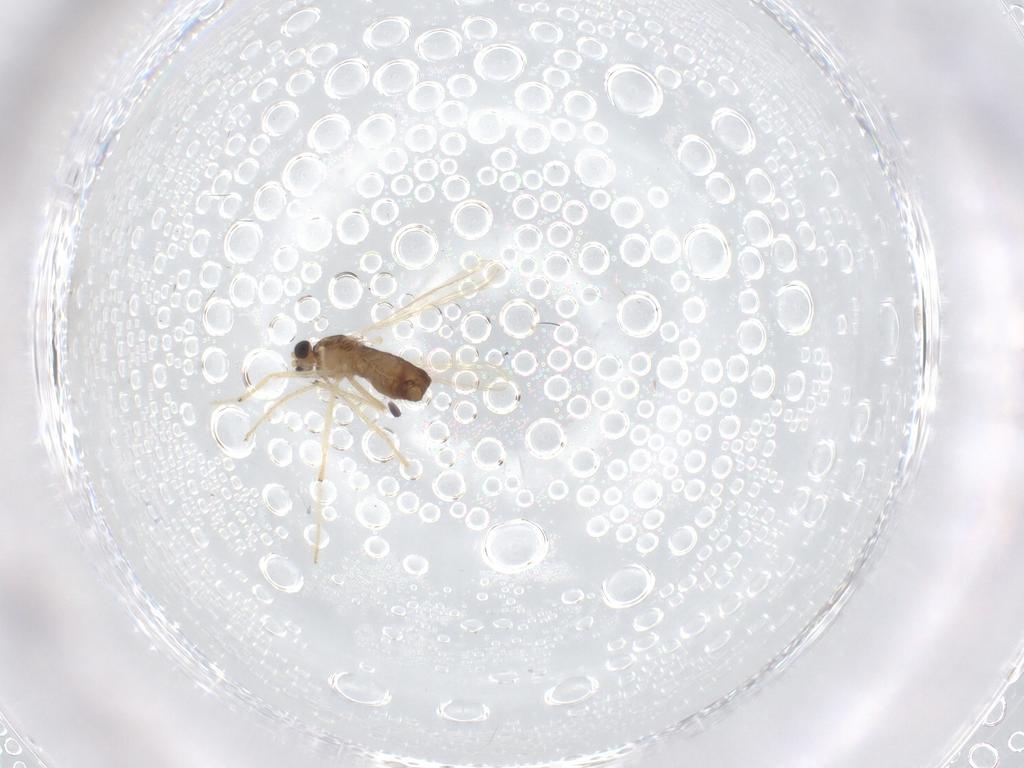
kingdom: Animalia
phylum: Arthropoda
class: Insecta
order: Diptera
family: Chironomidae
